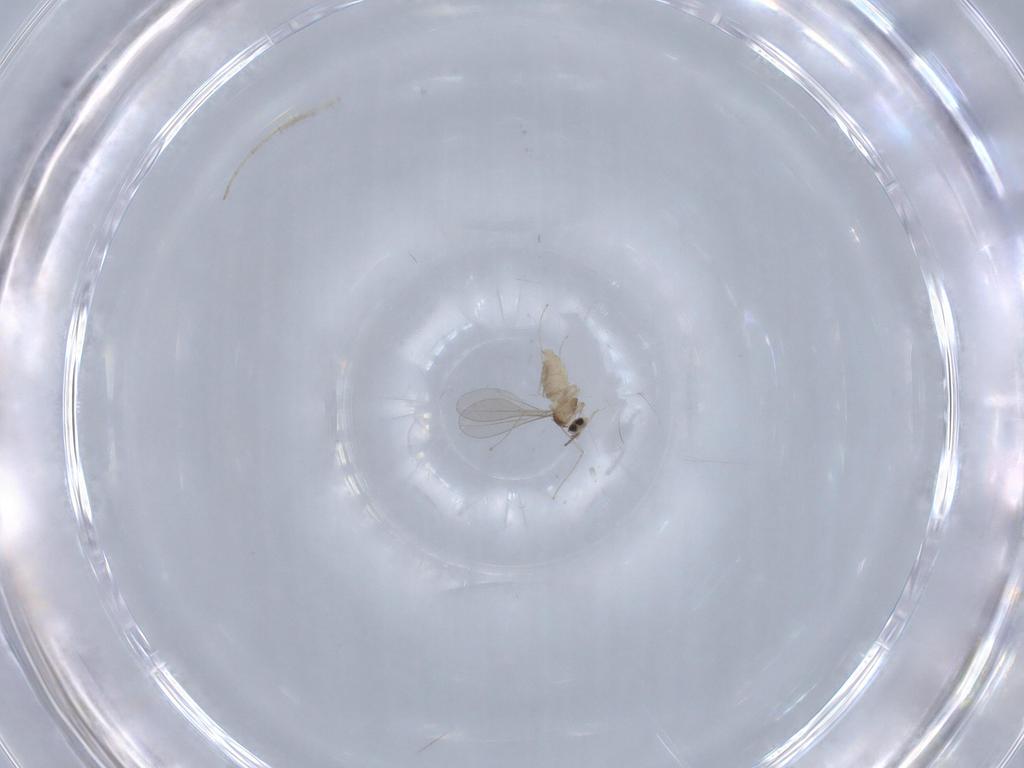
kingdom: Animalia
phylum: Arthropoda
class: Insecta
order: Diptera
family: Cecidomyiidae
